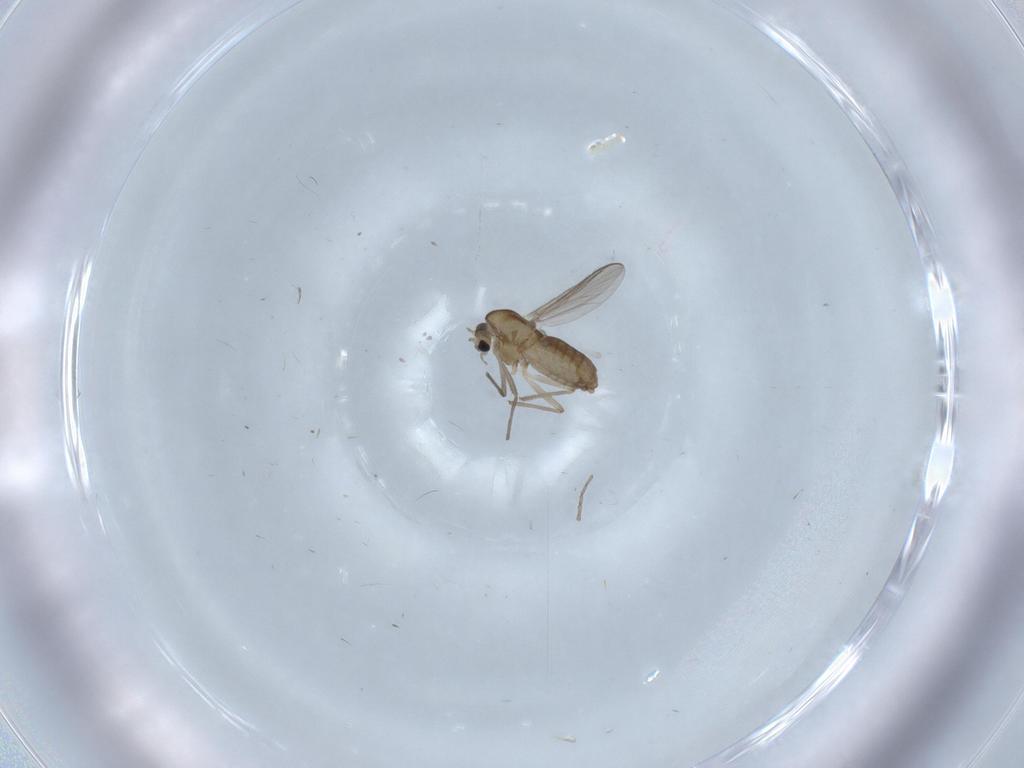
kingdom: Animalia
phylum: Arthropoda
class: Insecta
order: Diptera
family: Chironomidae
